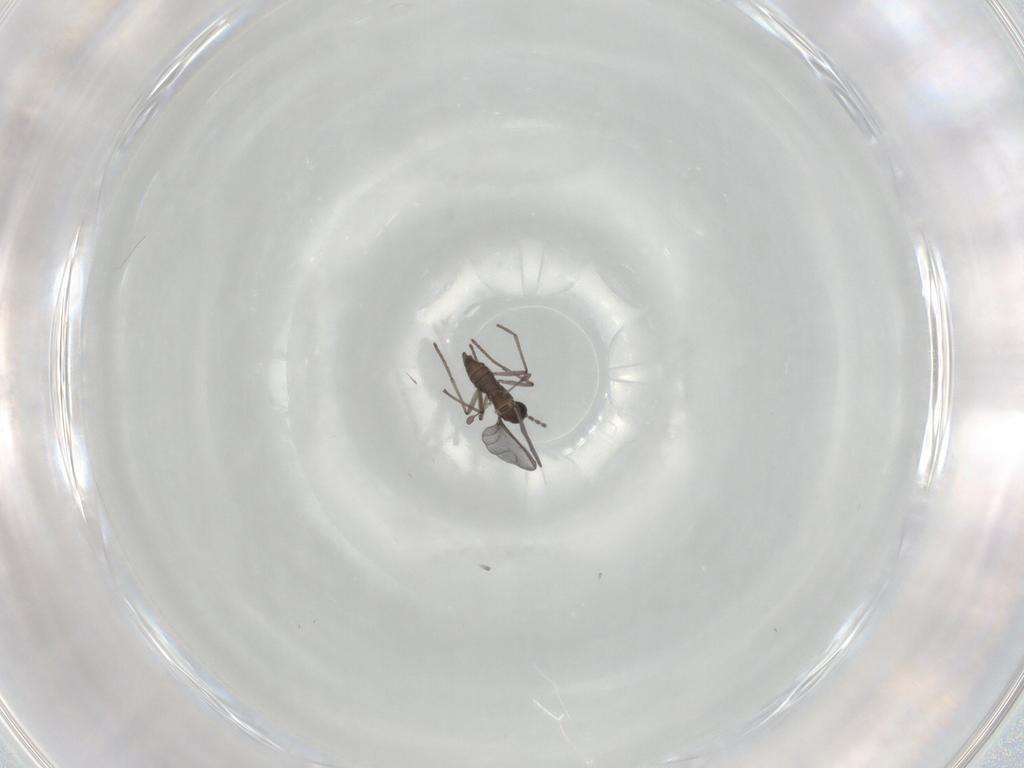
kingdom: Animalia
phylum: Arthropoda
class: Insecta
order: Diptera
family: Sciaridae
